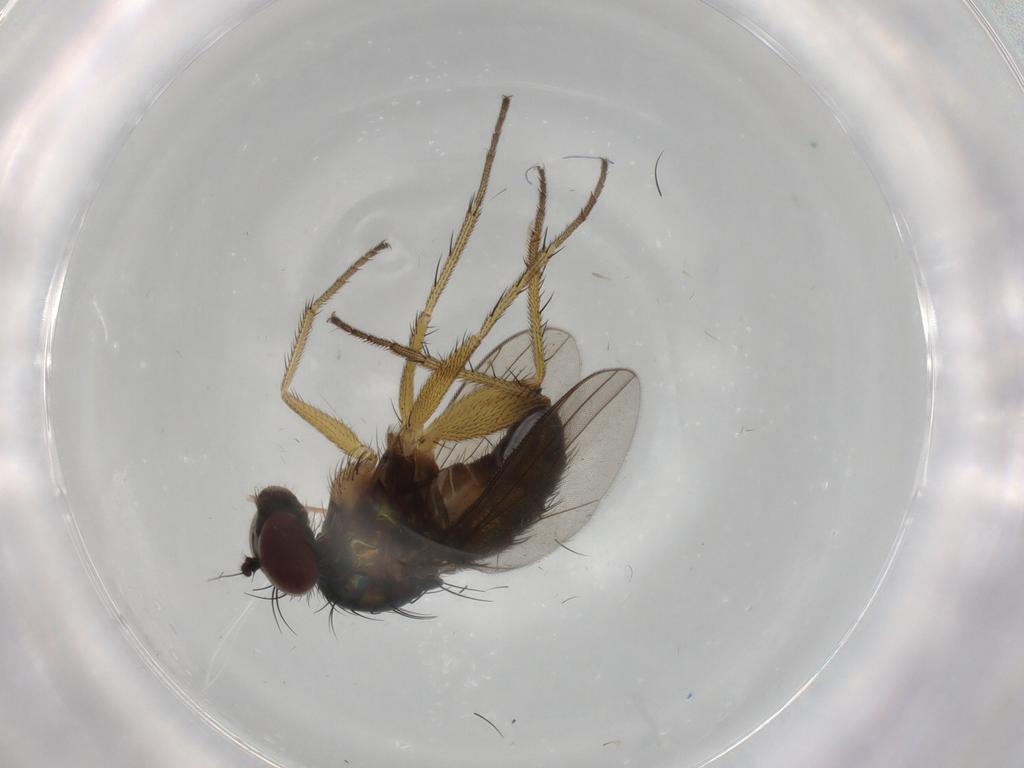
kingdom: Animalia
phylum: Arthropoda
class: Insecta
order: Diptera
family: Dolichopodidae
